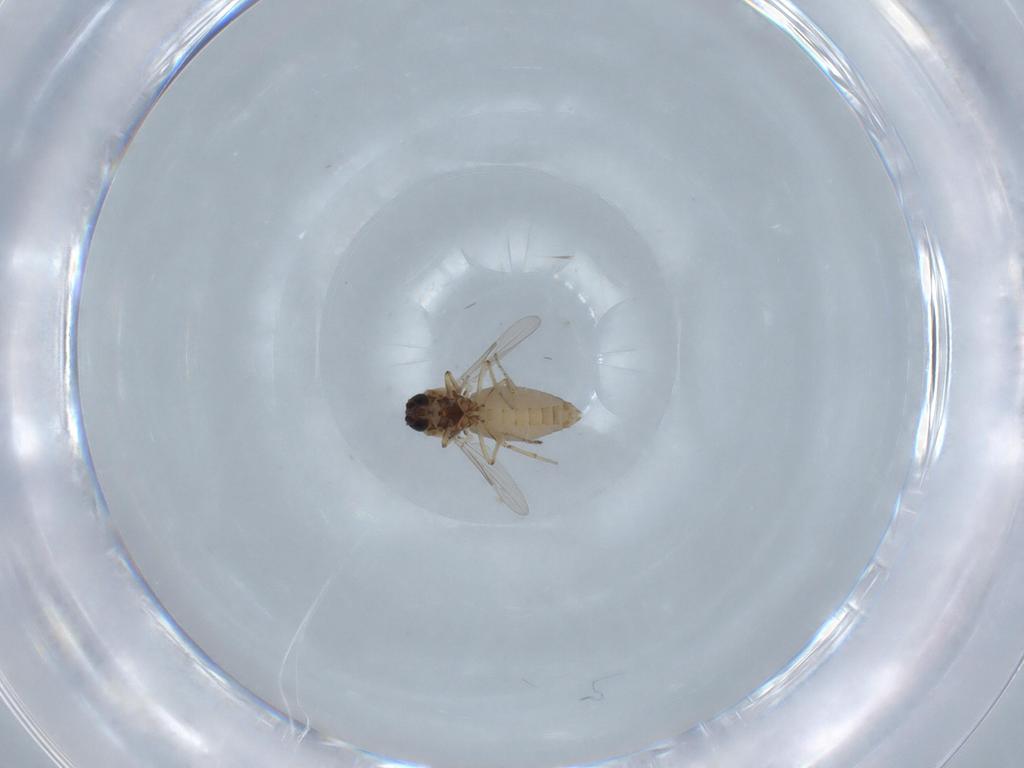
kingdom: Animalia
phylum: Arthropoda
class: Insecta
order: Diptera
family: Ceratopogonidae
